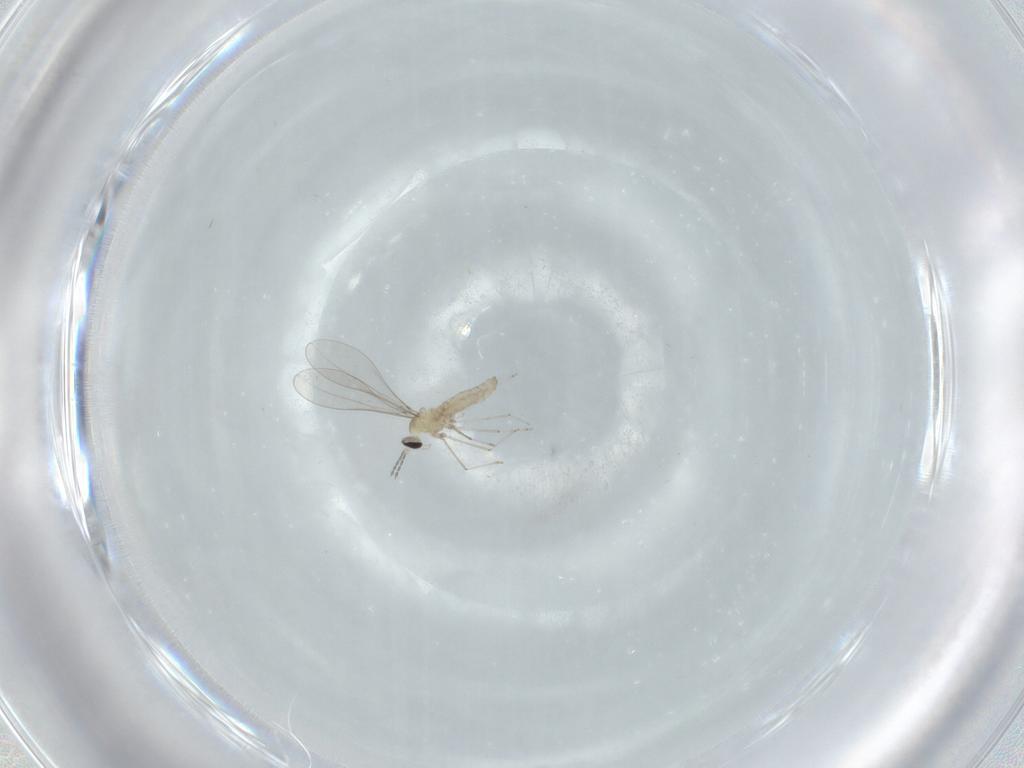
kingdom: Animalia
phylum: Arthropoda
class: Insecta
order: Diptera
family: Cecidomyiidae
